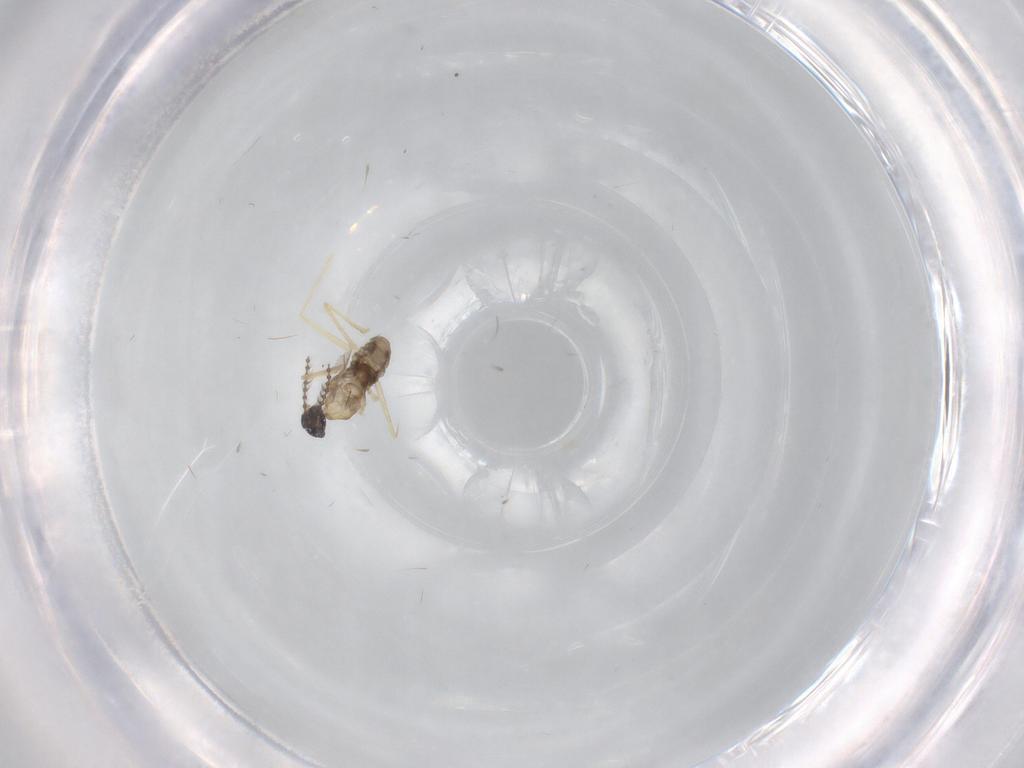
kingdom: Animalia
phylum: Arthropoda
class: Insecta
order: Diptera
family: Cecidomyiidae
